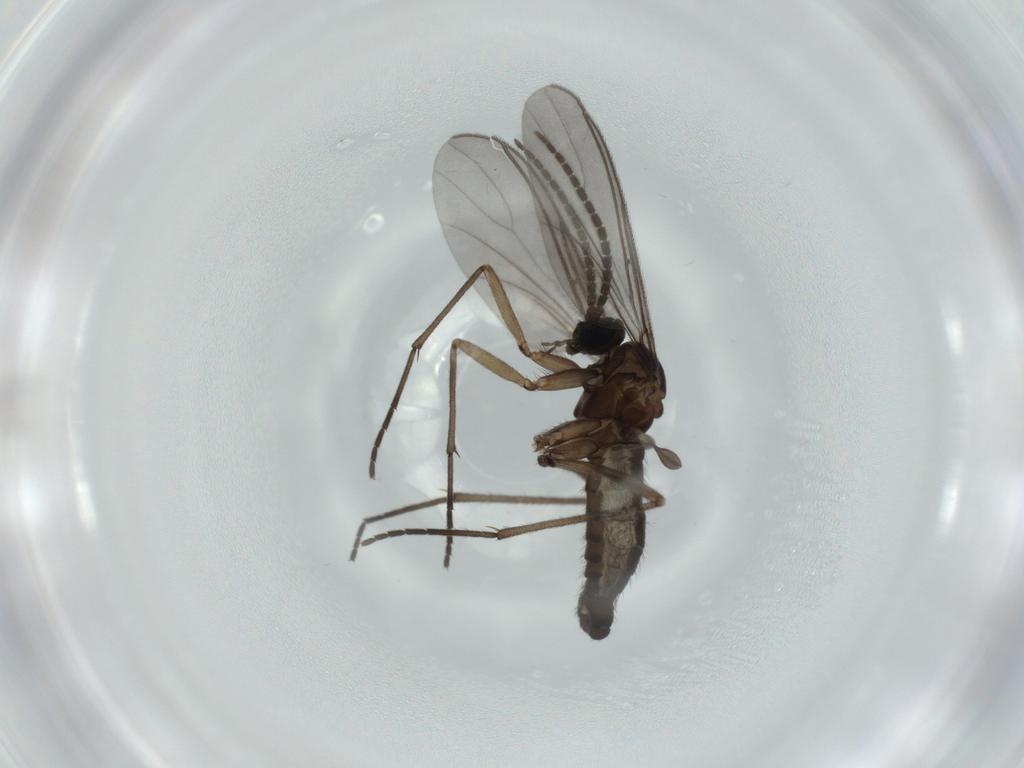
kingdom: Animalia
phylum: Arthropoda
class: Insecta
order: Diptera
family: Sciaridae
